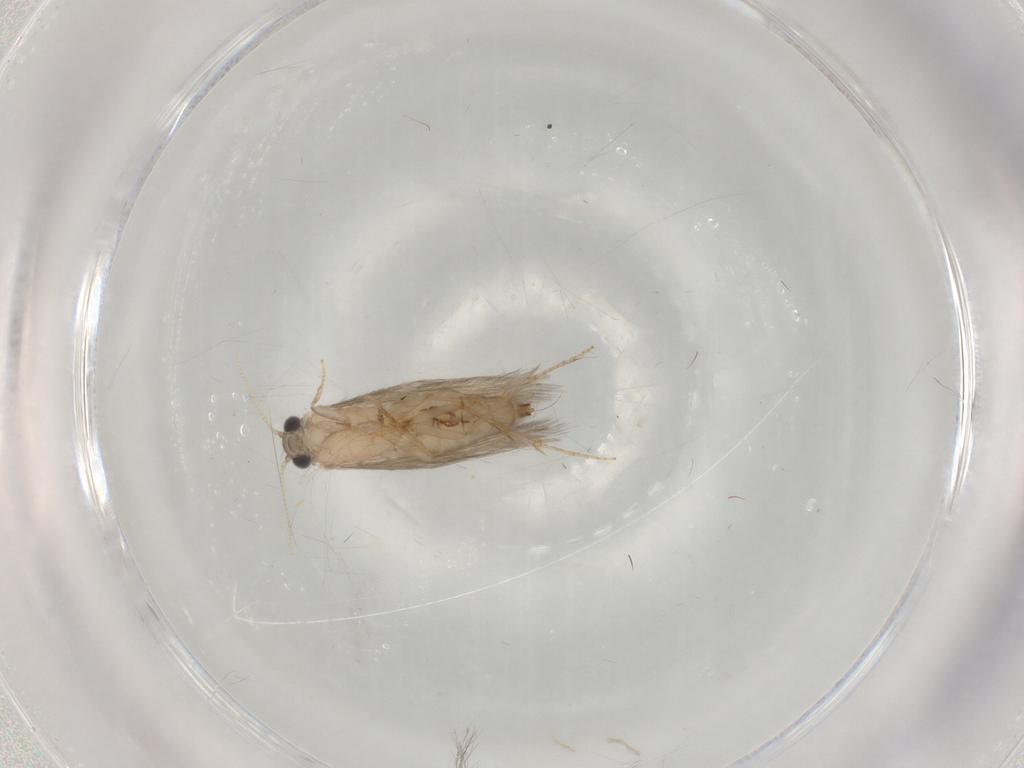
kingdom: Animalia
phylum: Arthropoda
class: Insecta
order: Trichoptera
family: Hydroptilidae
